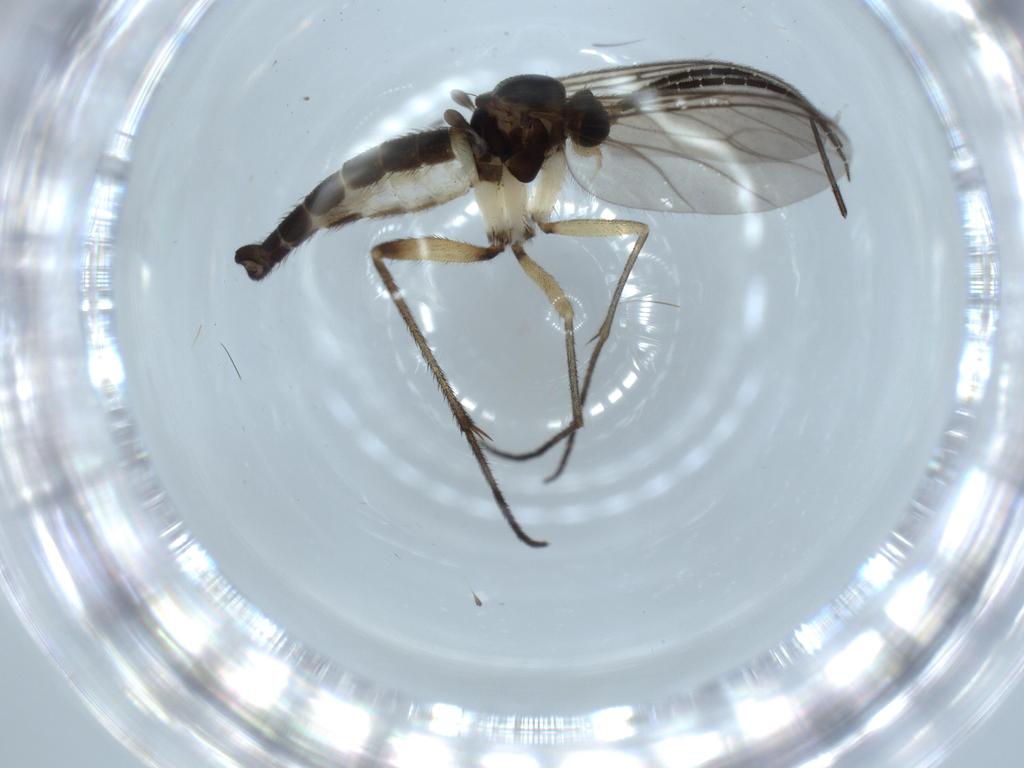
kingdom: Animalia
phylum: Arthropoda
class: Insecta
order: Diptera
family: Sciaridae
